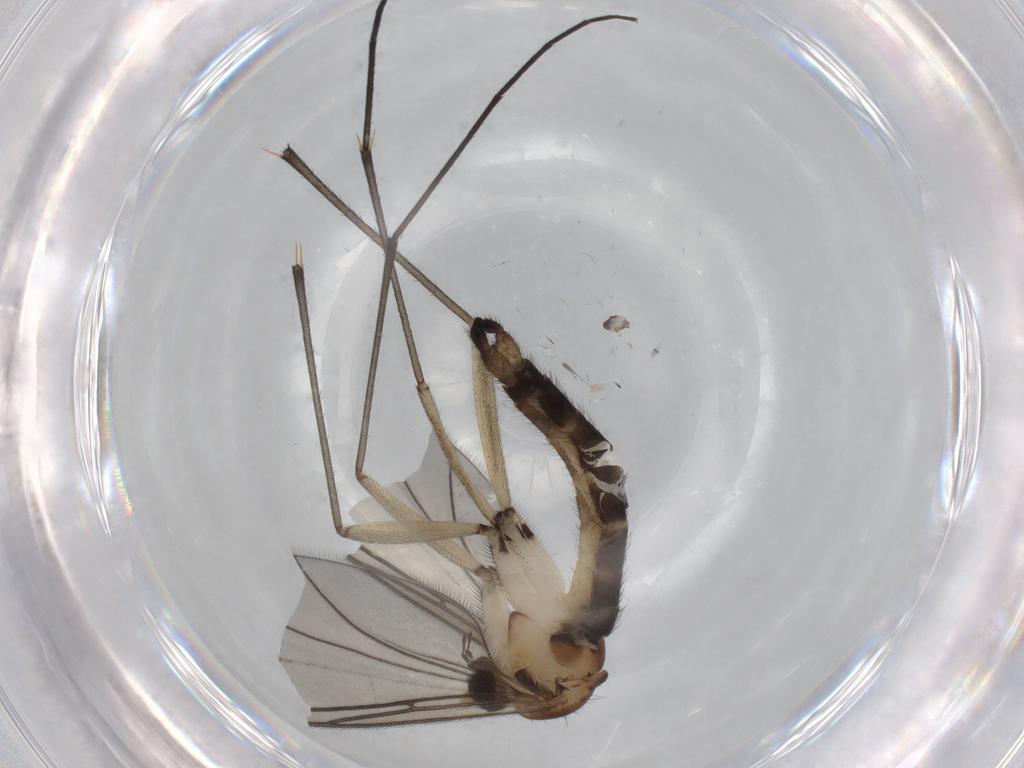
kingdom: Animalia
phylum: Arthropoda
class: Insecta
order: Diptera
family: Sciaridae
